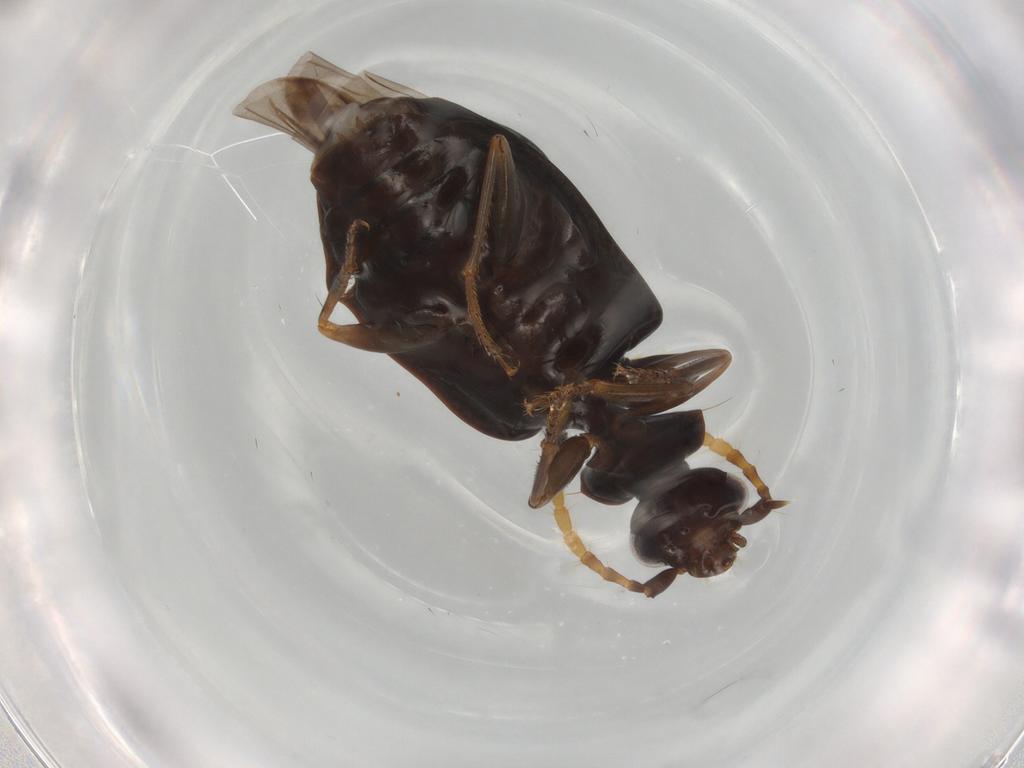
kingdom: Animalia
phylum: Arthropoda
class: Insecta
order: Coleoptera
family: Carabidae
